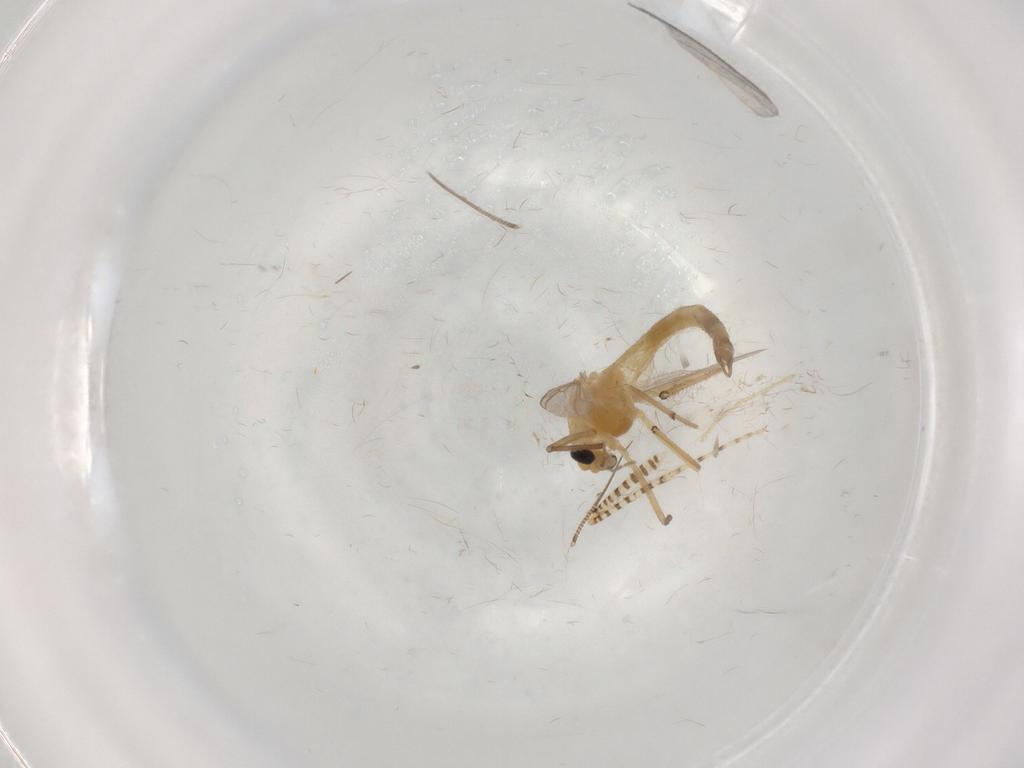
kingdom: Animalia
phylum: Arthropoda
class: Insecta
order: Diptera
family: Chironomidae
